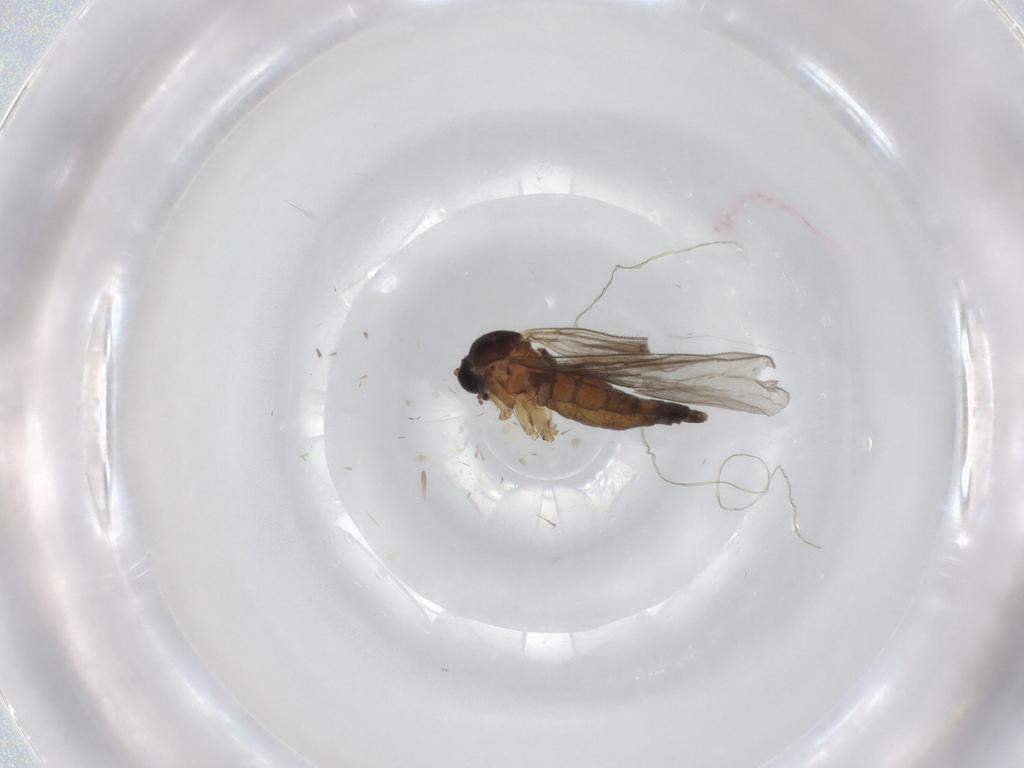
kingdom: Animalia
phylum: Arthropoda
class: Insecta
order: Diptera
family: Sciaridae
